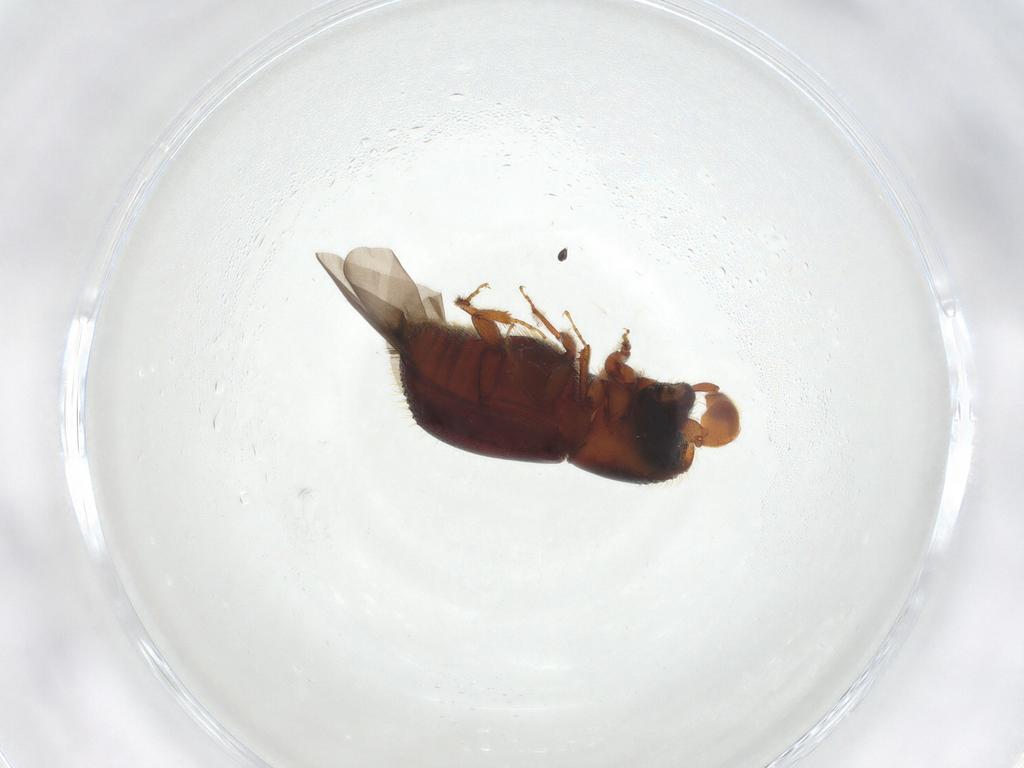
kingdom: Animalia
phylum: Arthropoda
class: Insecta
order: Coleoptera
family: Curculionidae
